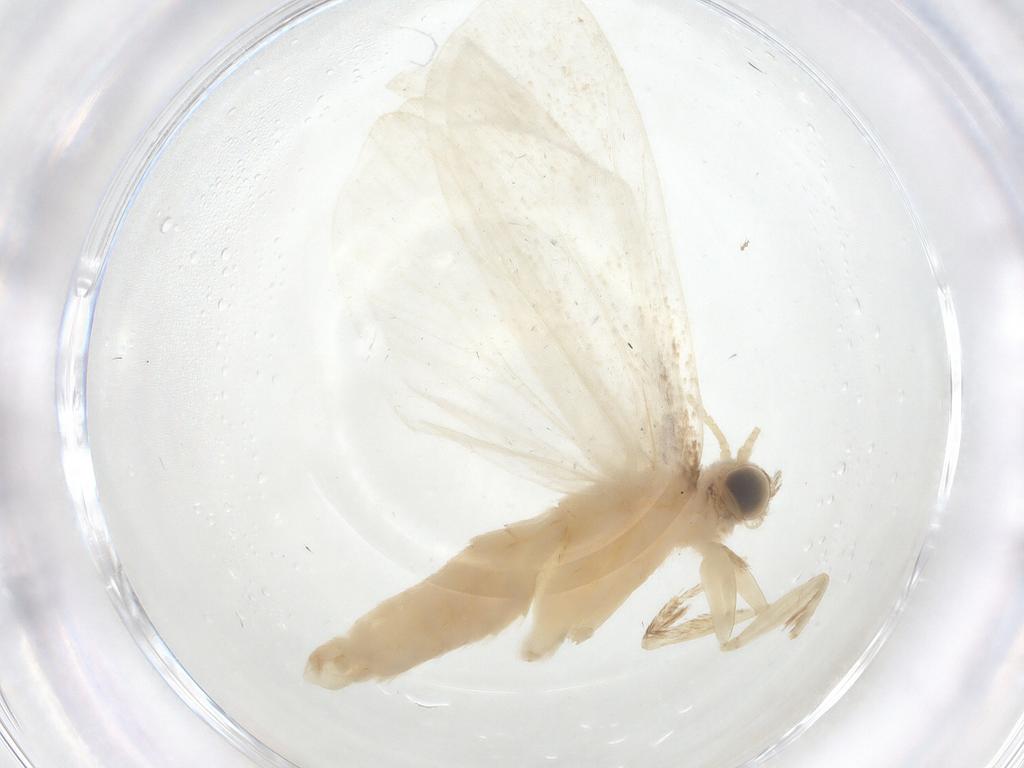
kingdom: Animalia
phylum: Arthropoda
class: Insecta
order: Lepidoptera
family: Crambidae
